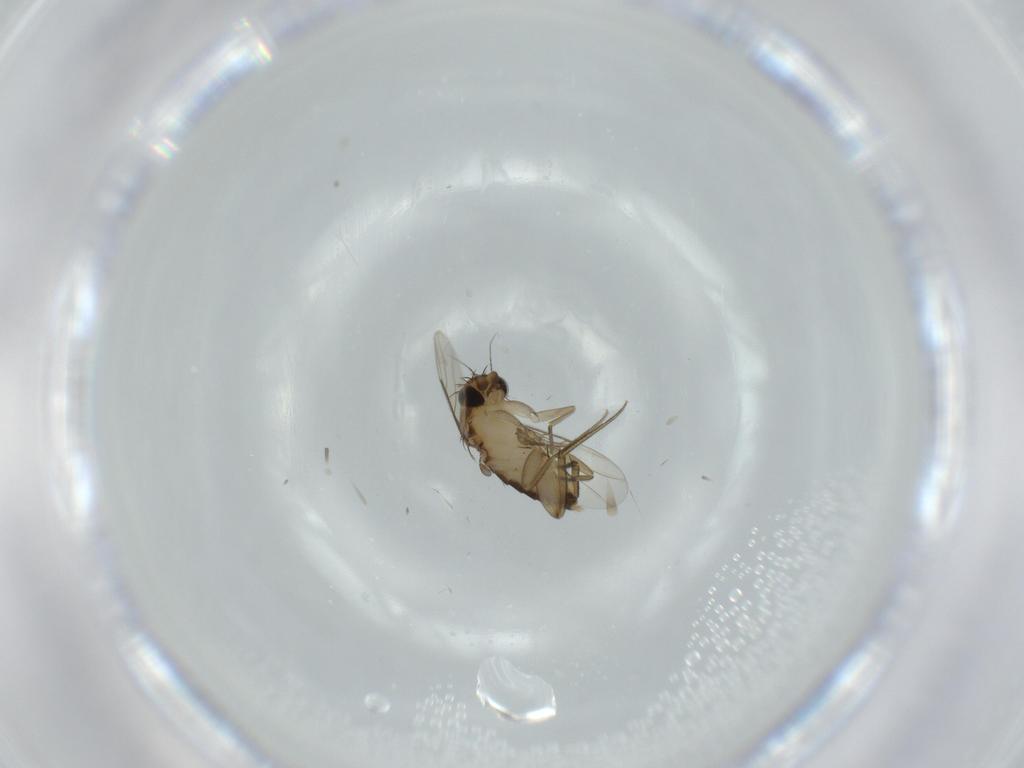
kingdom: Animalia
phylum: Arthropoda
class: Insecta
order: Diptera
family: Phoridae
